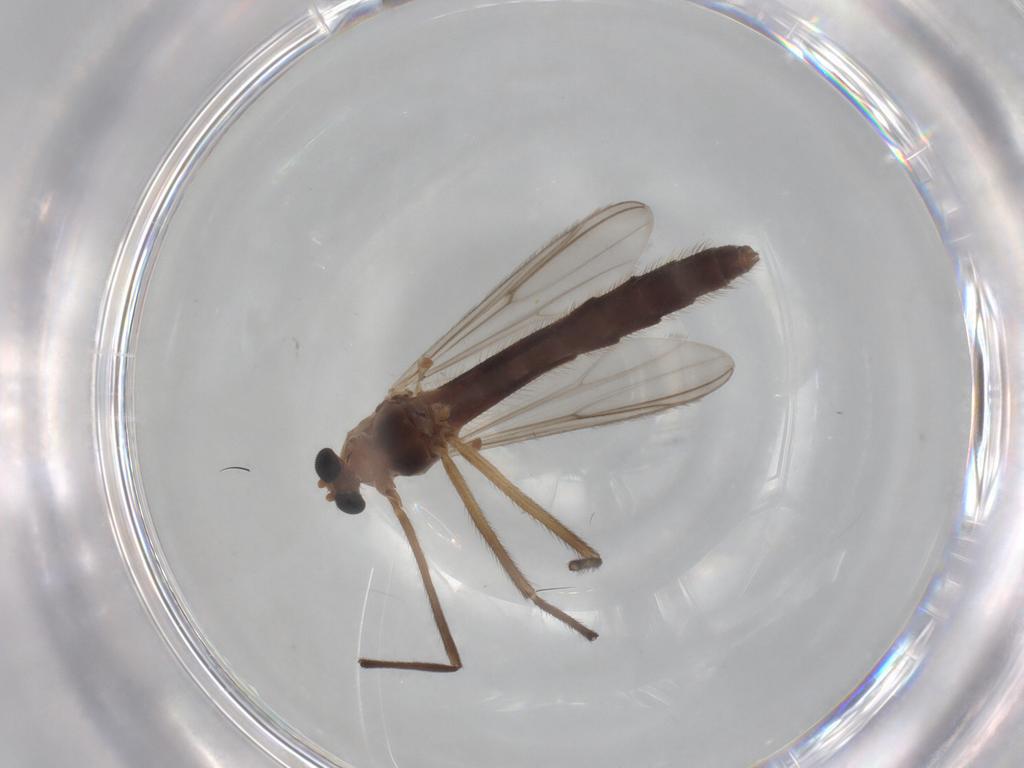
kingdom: Animalia
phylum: Arthropoda
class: Insecta
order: Diptera
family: Chironomidae
